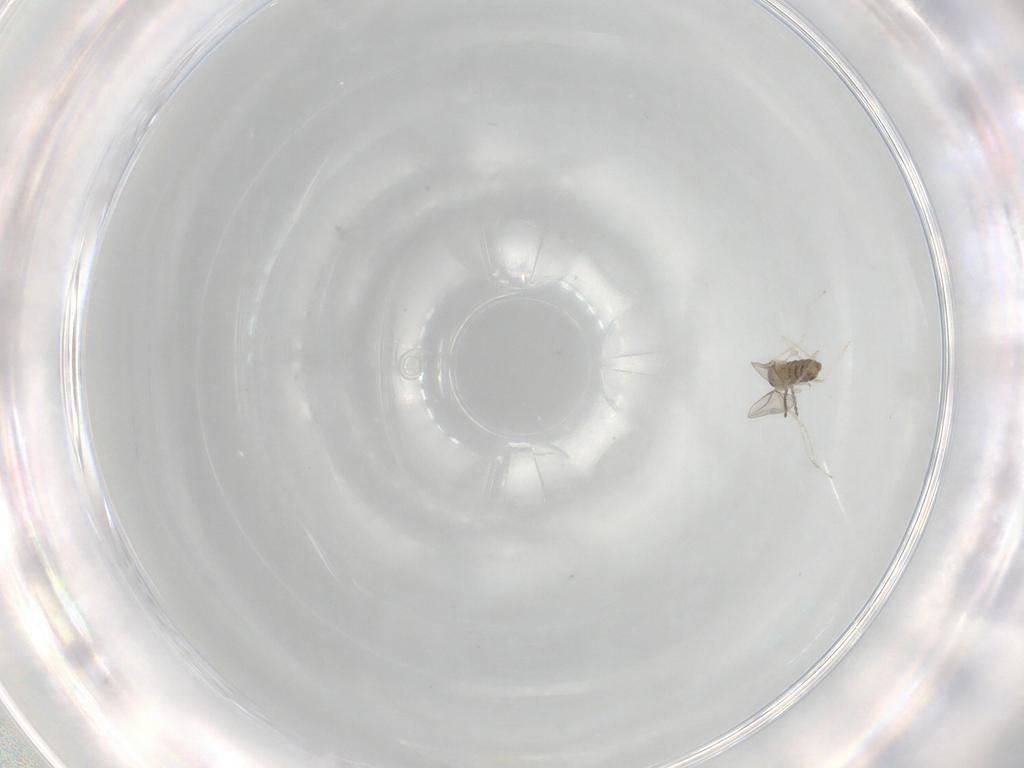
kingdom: Animalia
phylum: Arthropoda
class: Insecta
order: Diptera
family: Cecidomyiidae
